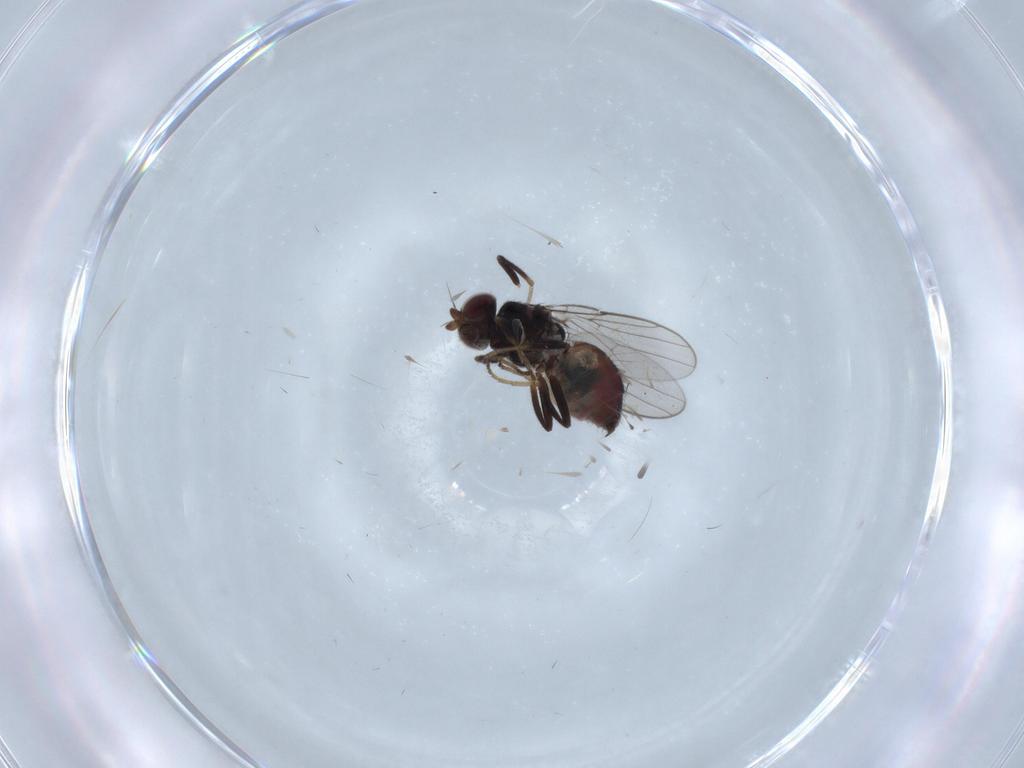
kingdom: Animalia
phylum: Arthropoda
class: Insecta
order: Diptera
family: Chloropidae
